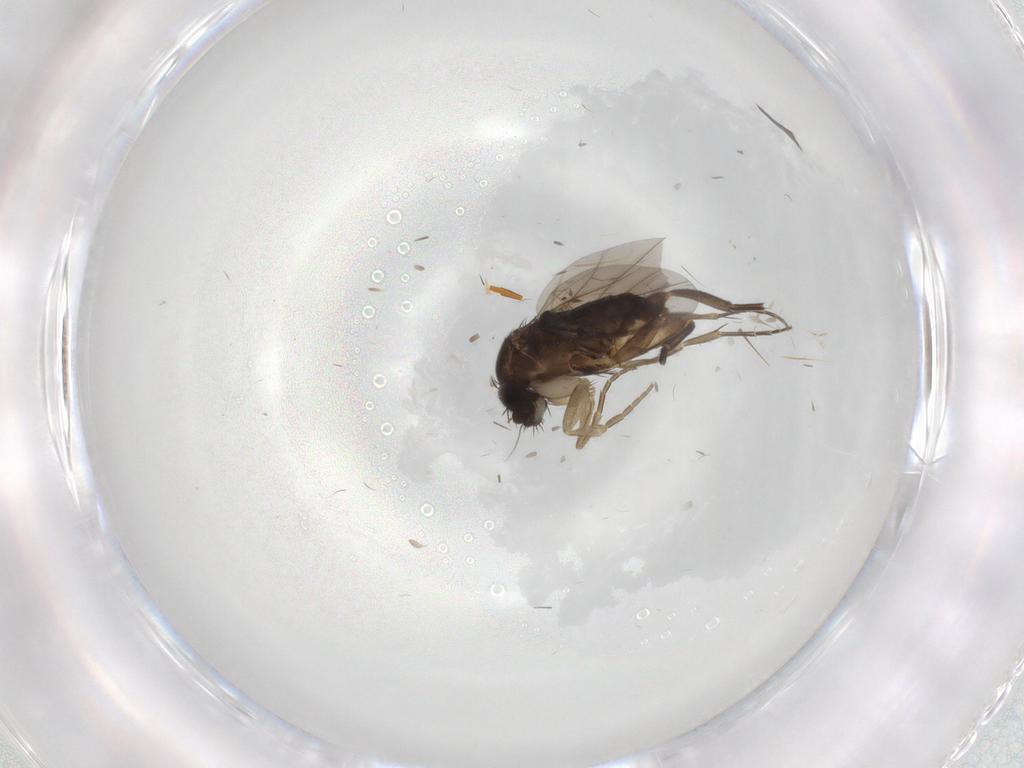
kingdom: Animalia
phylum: Arthropoda
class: Insecta
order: Diptera
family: Phoridae
